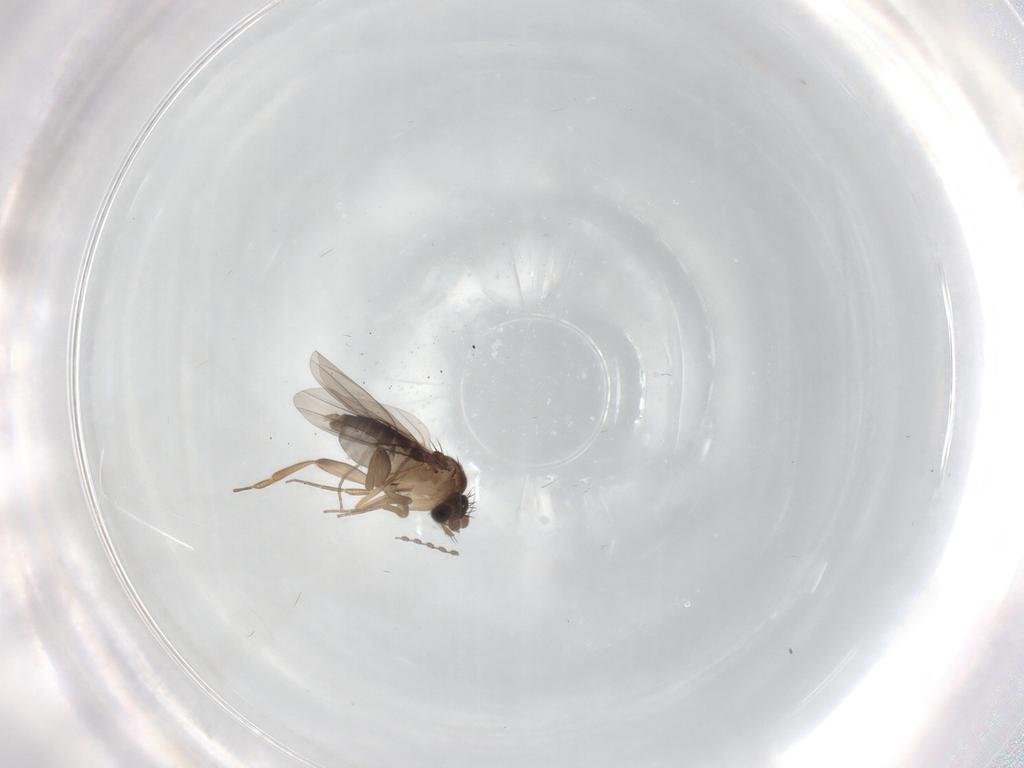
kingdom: Animalia
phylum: Arthropoda
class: Insecta
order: Diptera
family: Phoridae
